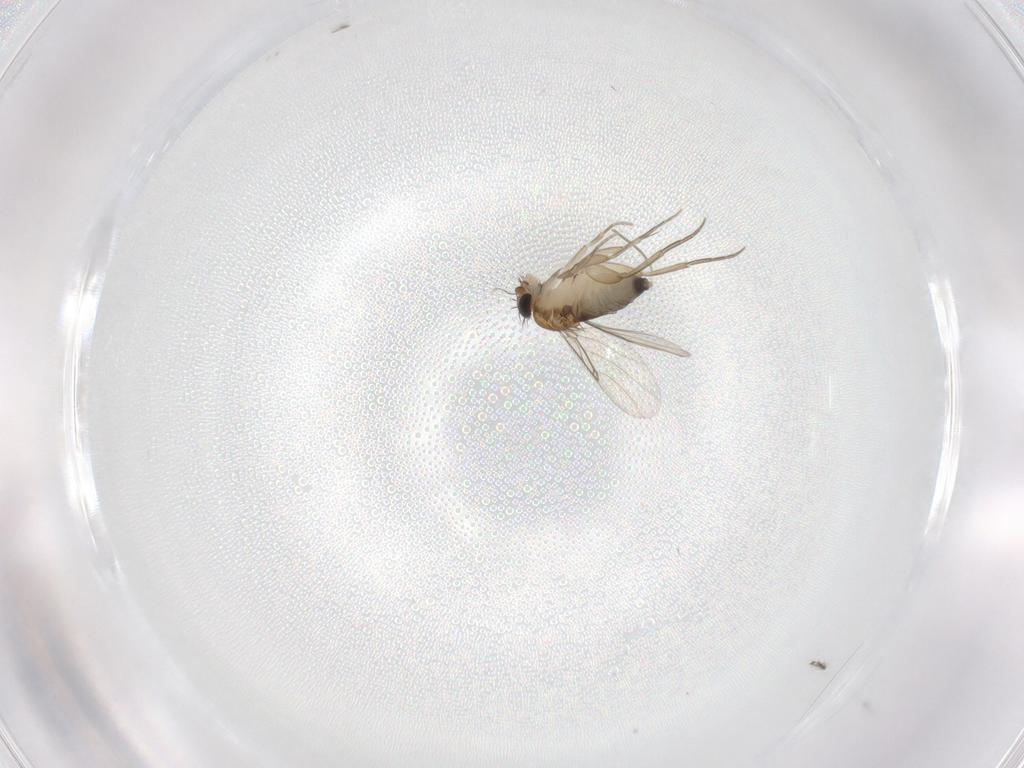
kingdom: Animalia
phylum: Arthropoda
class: Insecta
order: Diptera
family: Phoridae
